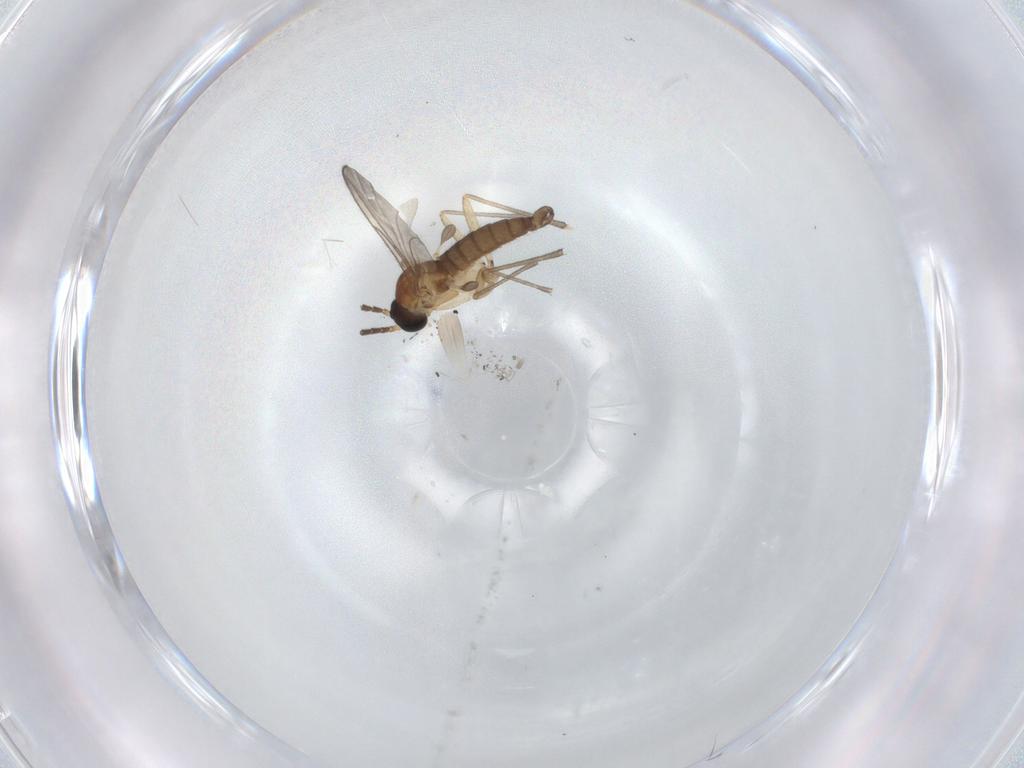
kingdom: Animalia
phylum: Arthropoda
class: Insecta
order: Diptera
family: Sciaridae
